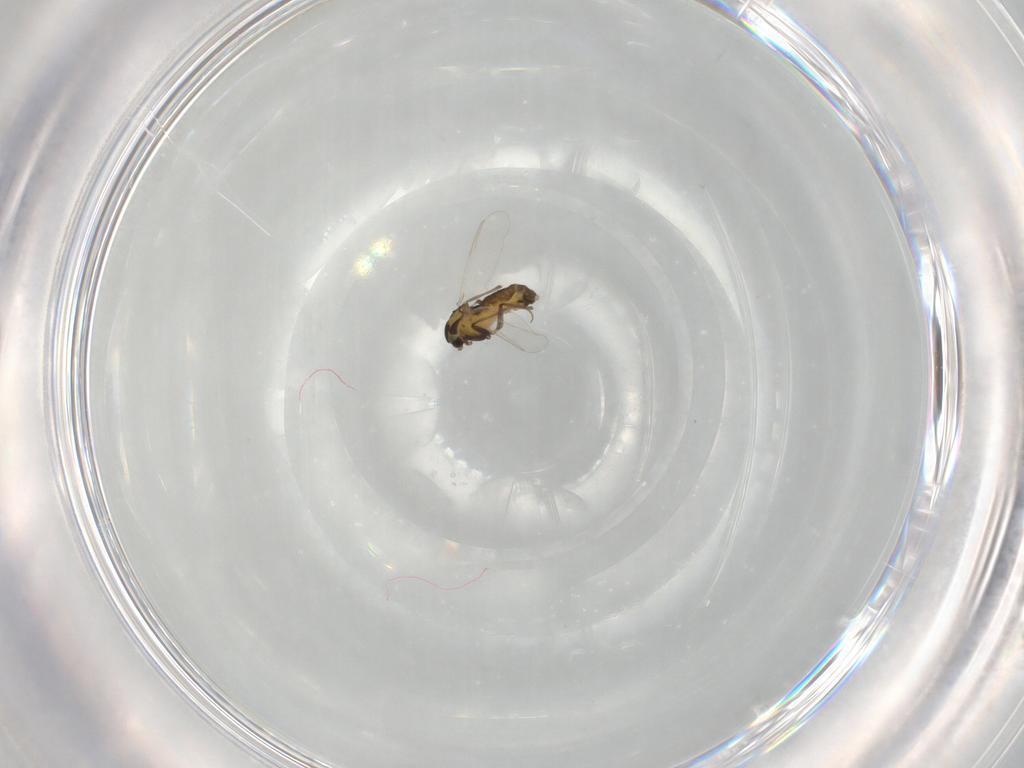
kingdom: Animalia
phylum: Arthropoda
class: Insecta
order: Diptera
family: Chironomidae
